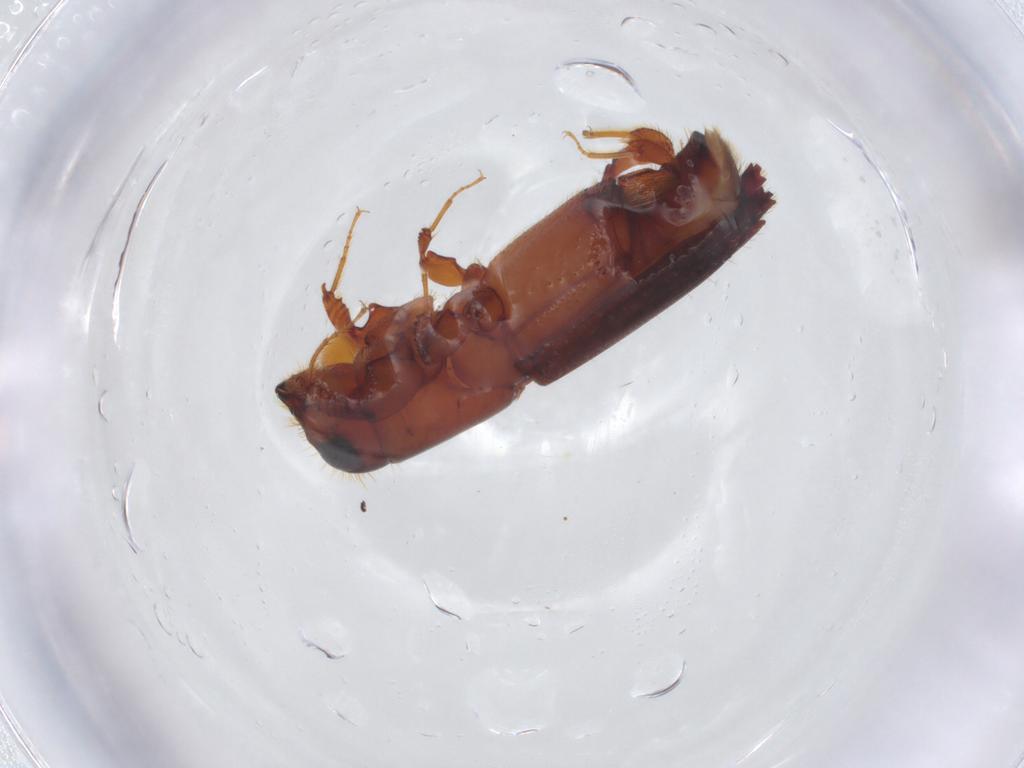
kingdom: Animalia
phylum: Arthropoda
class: Insecta
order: Coleoptera
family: Curculionidae
